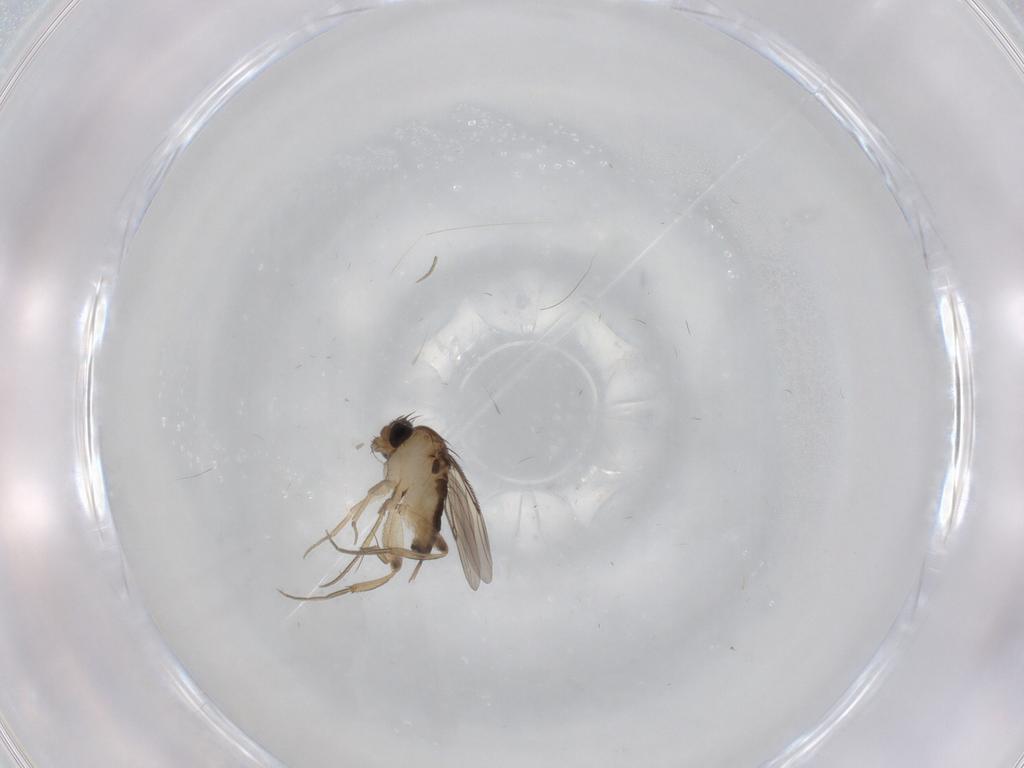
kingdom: Animalia
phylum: Arthropoda
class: Insecta
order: Diptera
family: Phoridae
